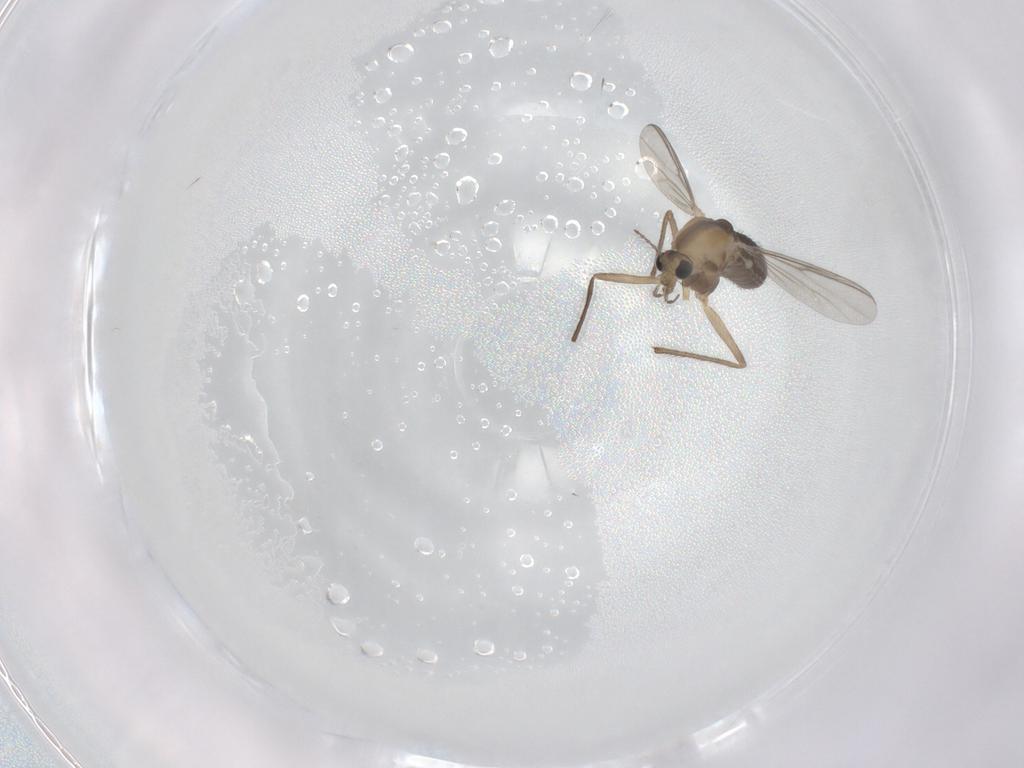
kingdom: Animalia
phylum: Arthropoda
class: Insecta
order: Diptera
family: Chironomidae
